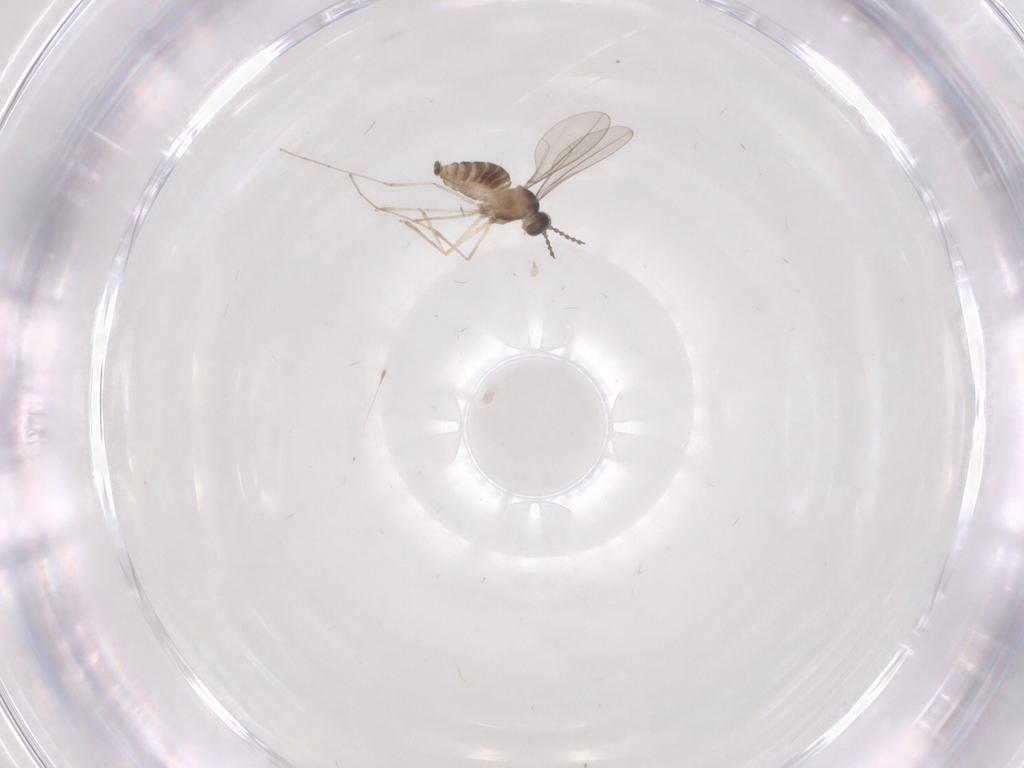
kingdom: Animalia
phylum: Arthropoda
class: Insecta
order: Diptera
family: Cecidomyiidae
